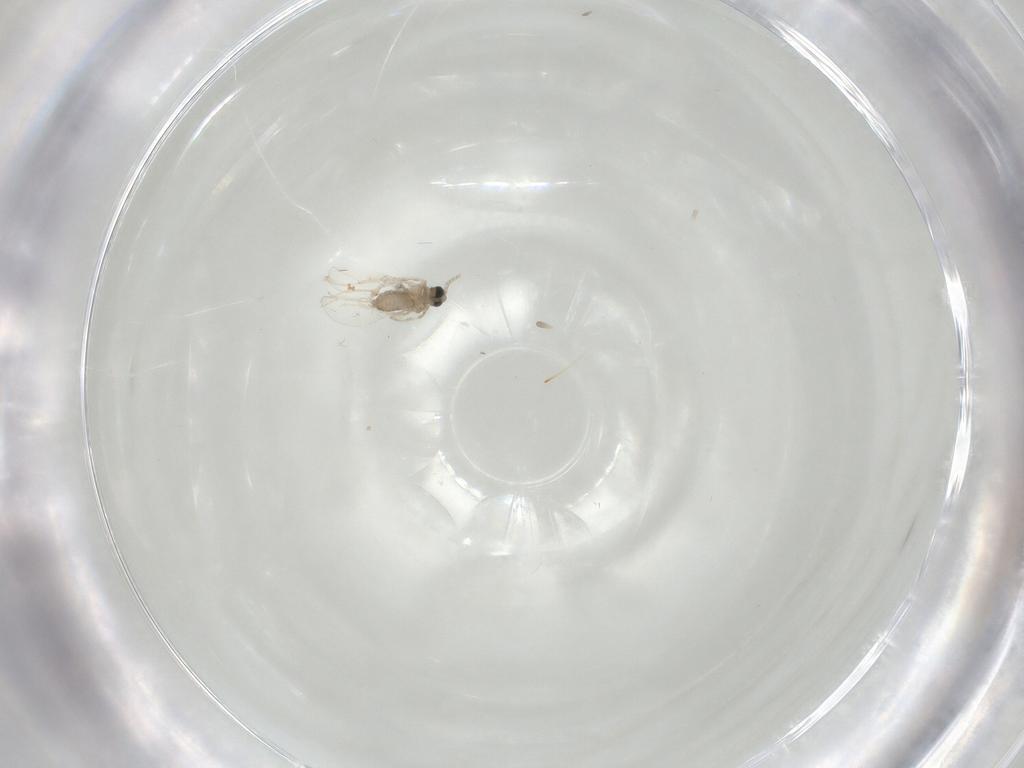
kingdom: Animalia
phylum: Arthropoda
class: Insecta
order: Diptera
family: Cecidomyiidae
